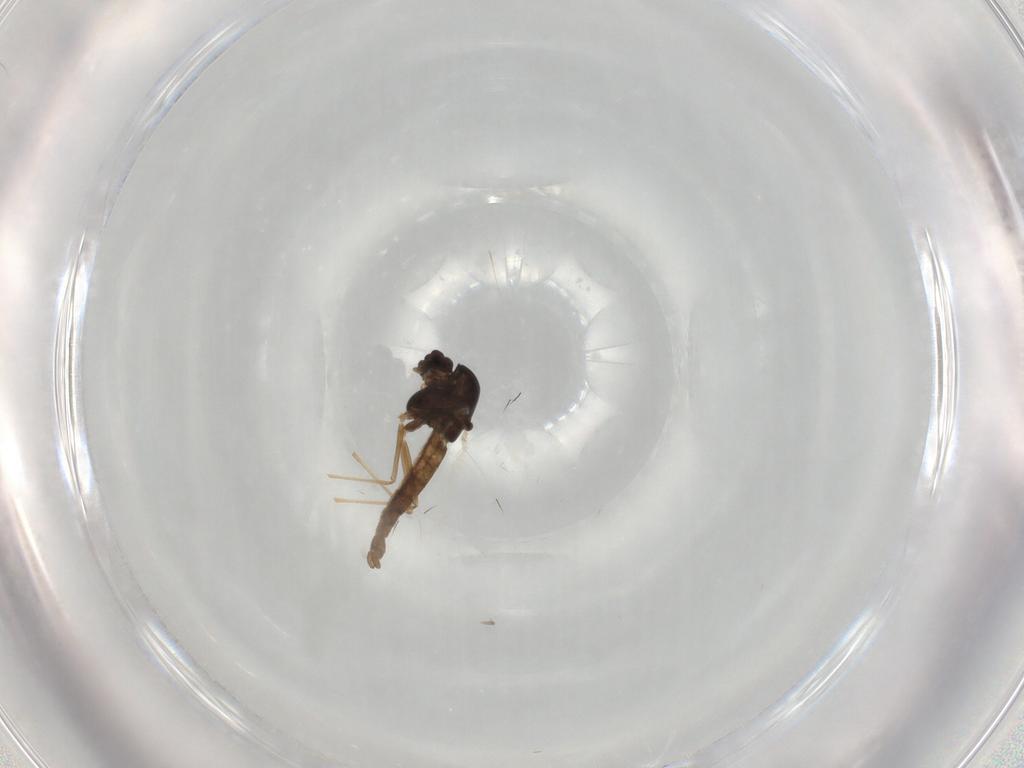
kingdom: Animalia
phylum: Arthropoda
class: Insecta
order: Diptera
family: Chironomidae
